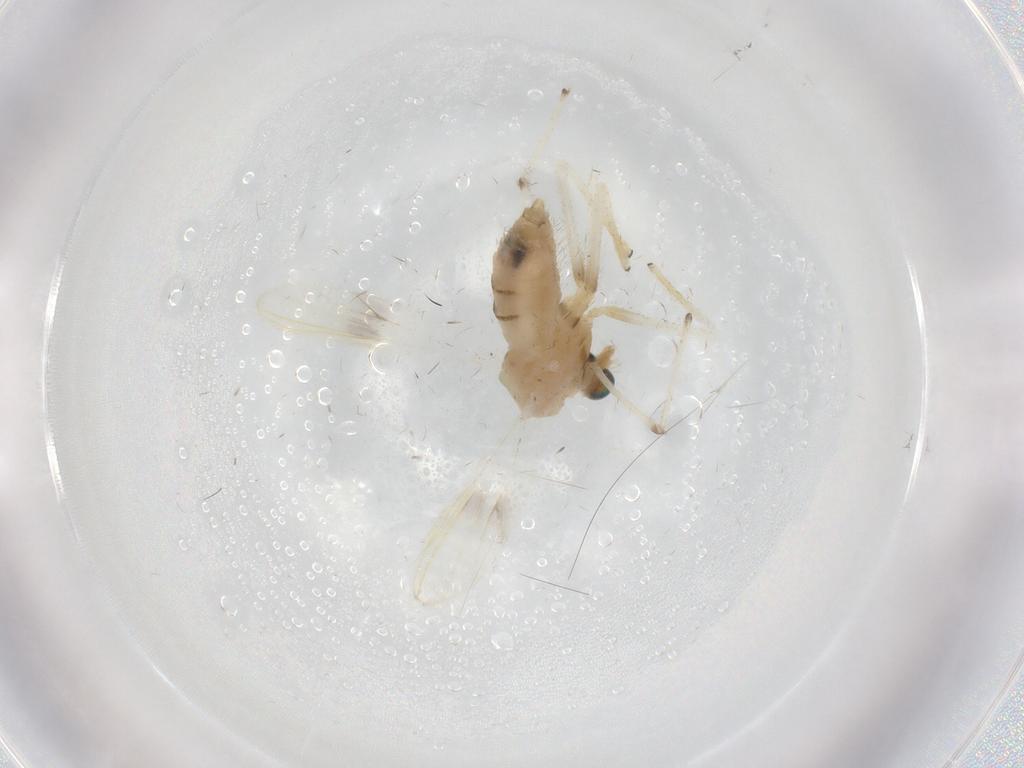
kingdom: Animalia
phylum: Arthropoda
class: Insecta
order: Diptera
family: Chironomidae
